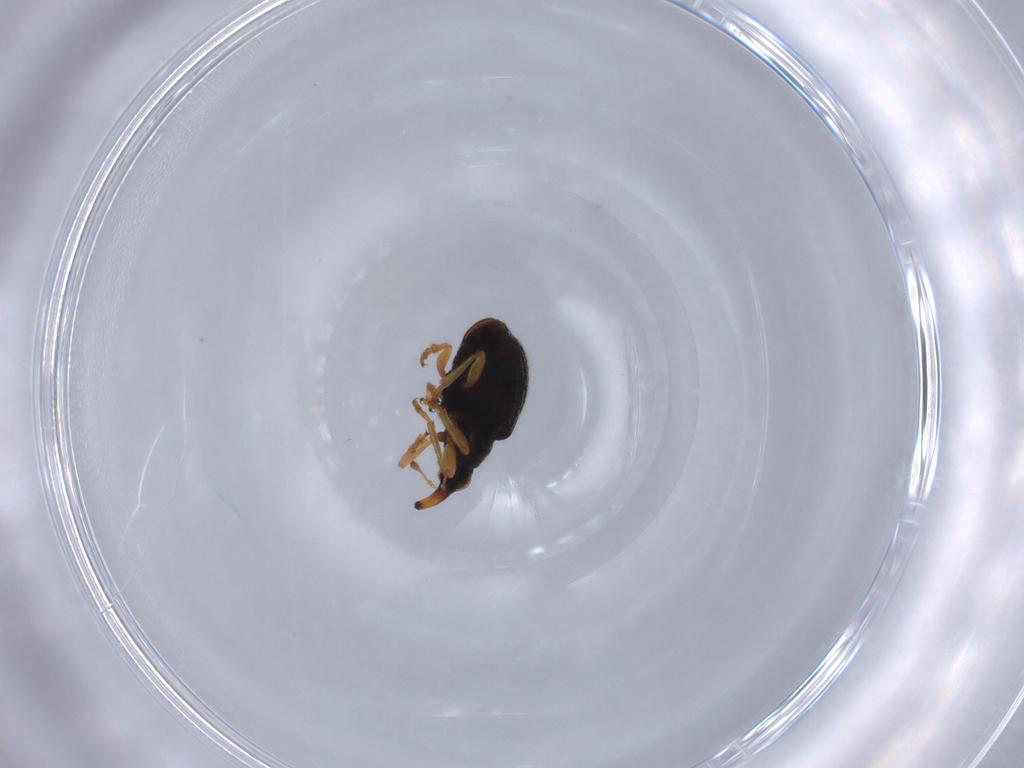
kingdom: Animalia
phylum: Arthropoda
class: Insecta
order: Coleoptera
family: Brentidae
